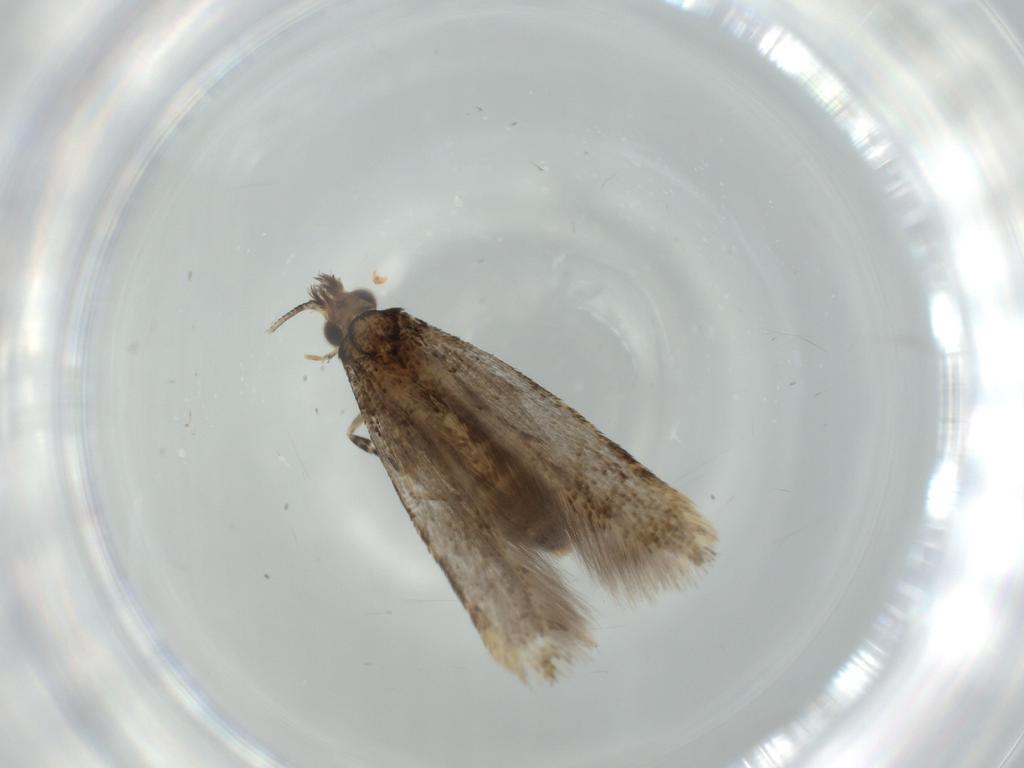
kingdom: Animalia
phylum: Arthropoda
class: Insecta
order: Lepidoptera
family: Tineidae
